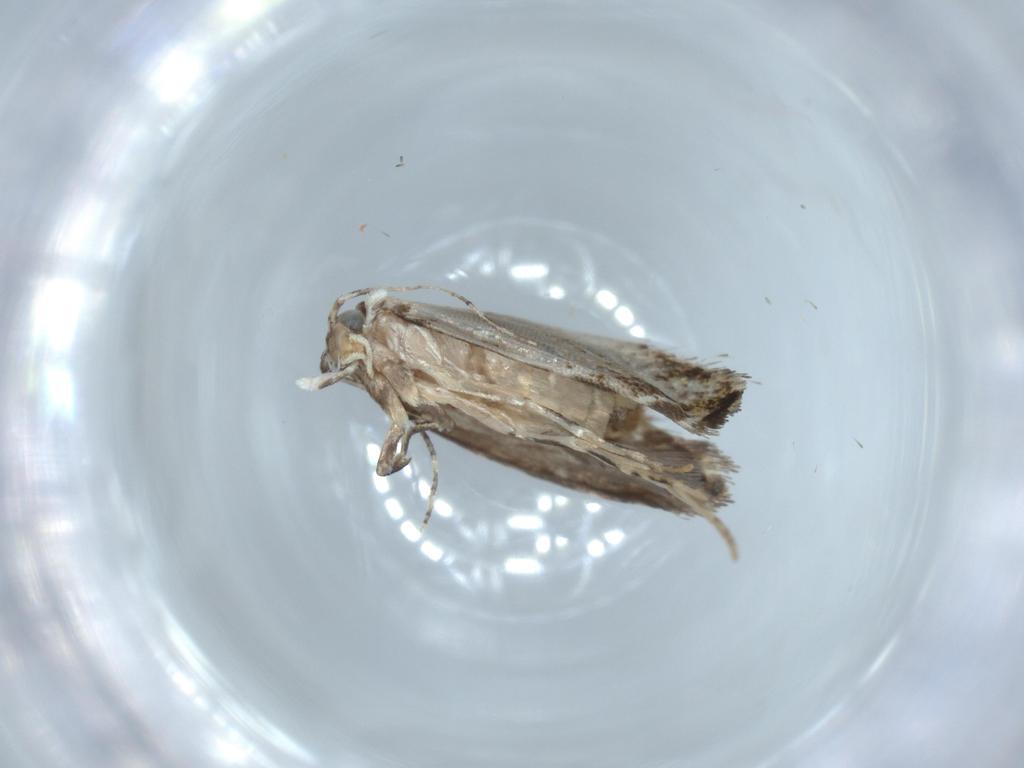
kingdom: Animalia
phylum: Arthropoda
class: Insecta
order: Lepidoptera
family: Tineidae
